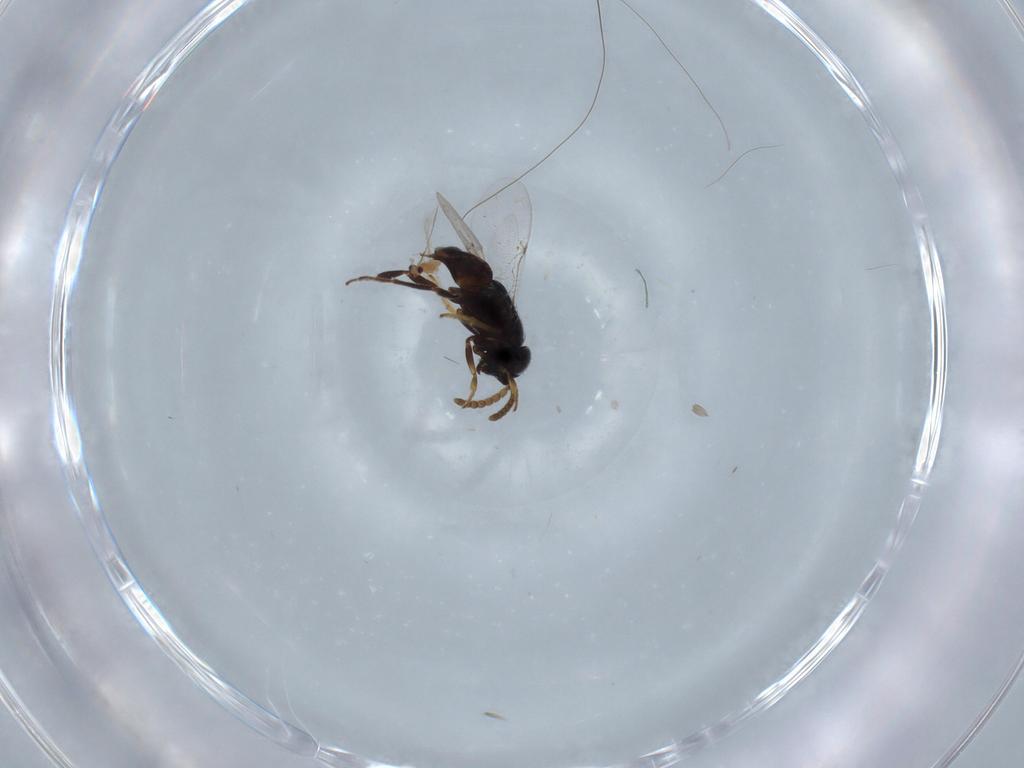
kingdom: Animalia
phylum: Arthropoda
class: Insecta
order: Hymenoptera
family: Mymaridae
